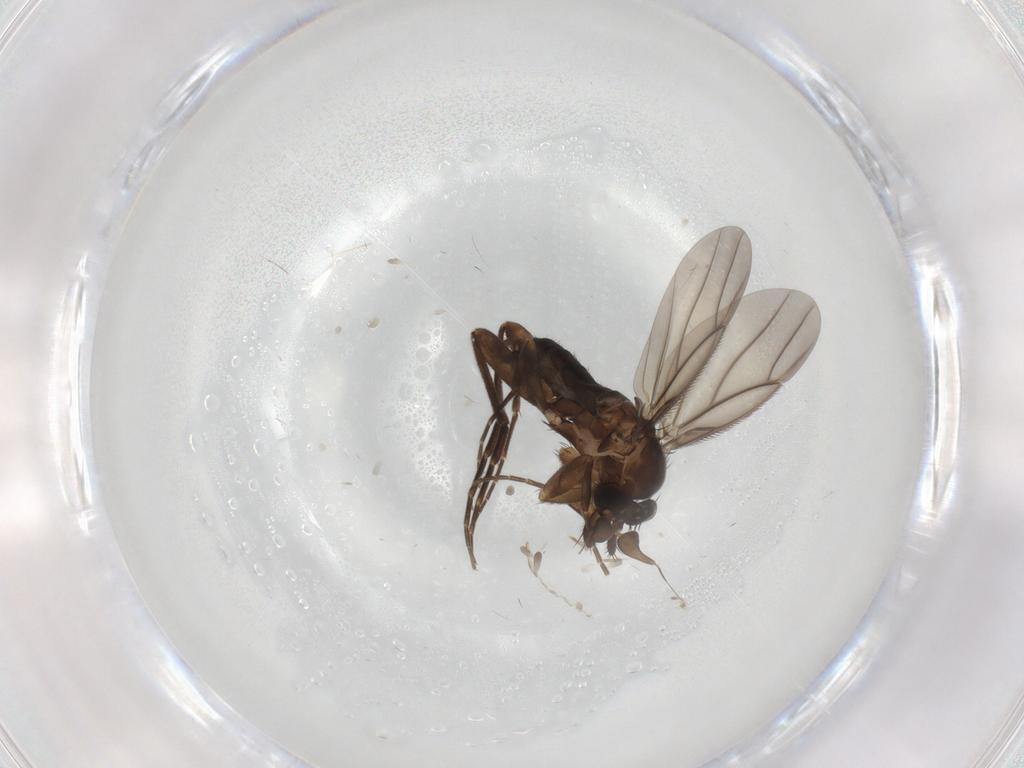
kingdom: Animalia
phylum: Arthropoda
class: Insecta
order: Diptera
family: Phoridae
